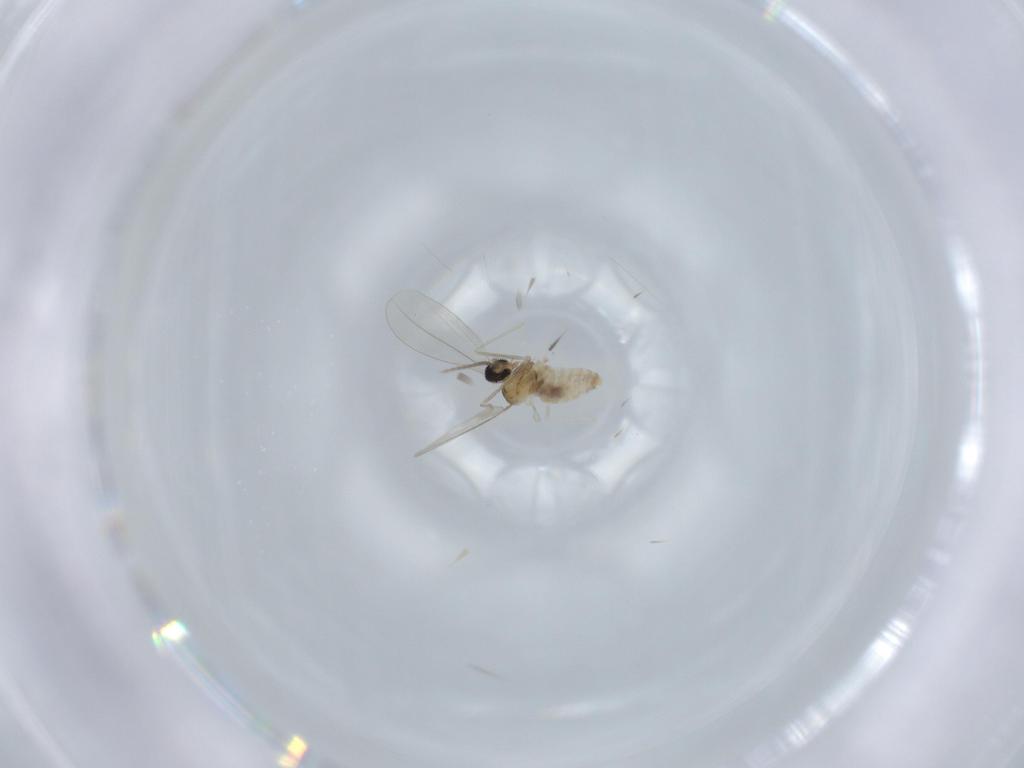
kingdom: Animalia
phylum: Arthropoda
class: Insecta
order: Diptera
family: Cecidomyiidae
